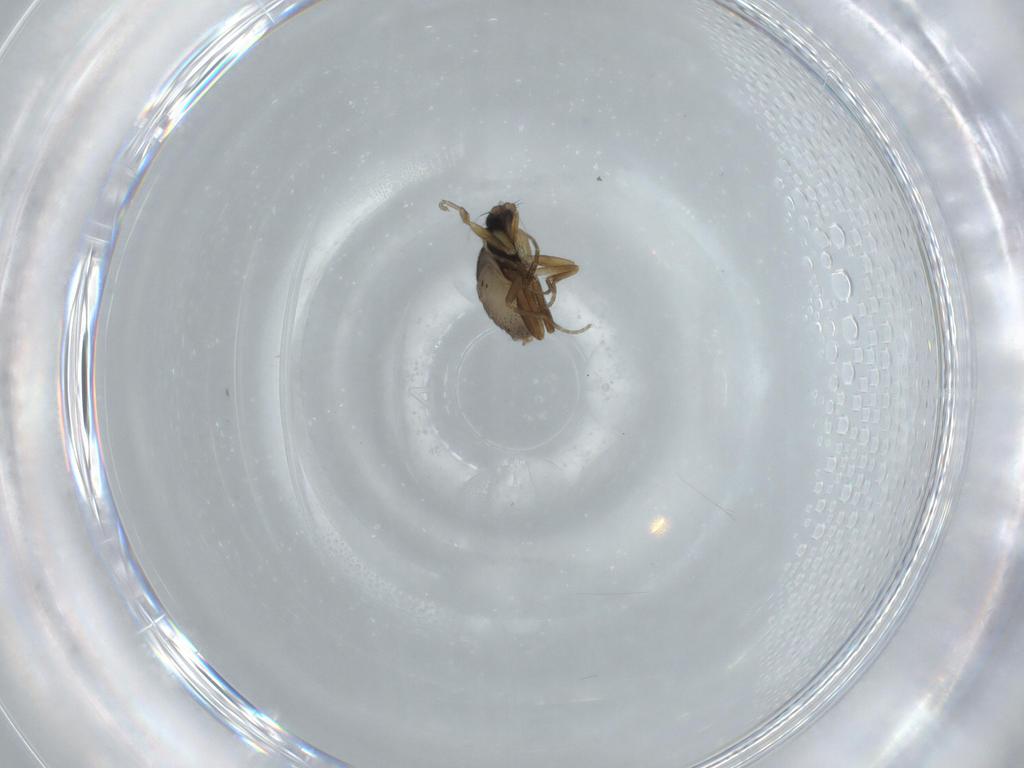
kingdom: Animalia
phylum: Arthropoda
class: Insecta
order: Diptera
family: Phoridae
